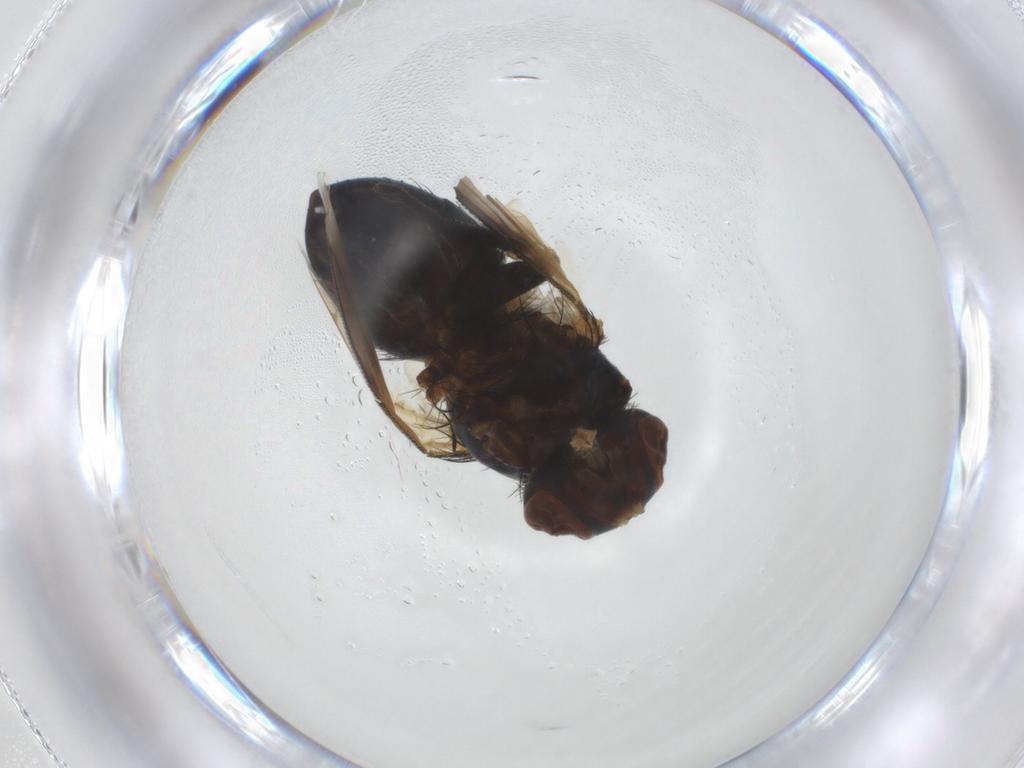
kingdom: Animalia
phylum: Arthropoda
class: Insecta
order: Diptera
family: Tachinidae
